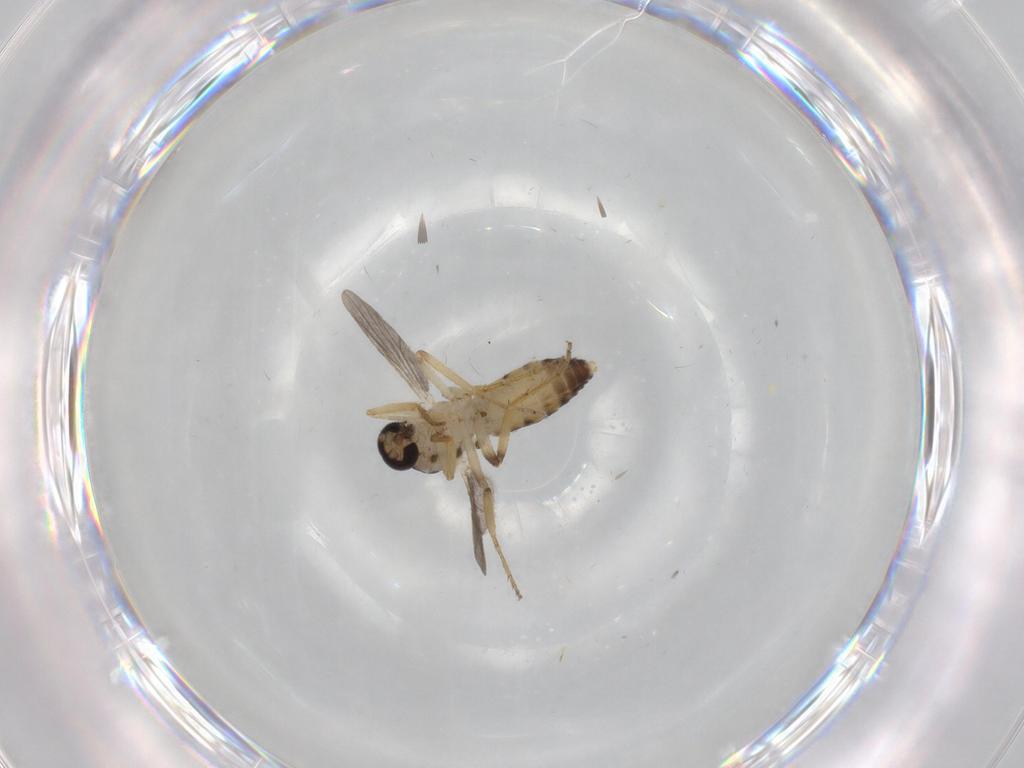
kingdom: Animalia
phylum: Arthropoda
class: Insecta
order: Diptera
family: Ceratopogonidae
